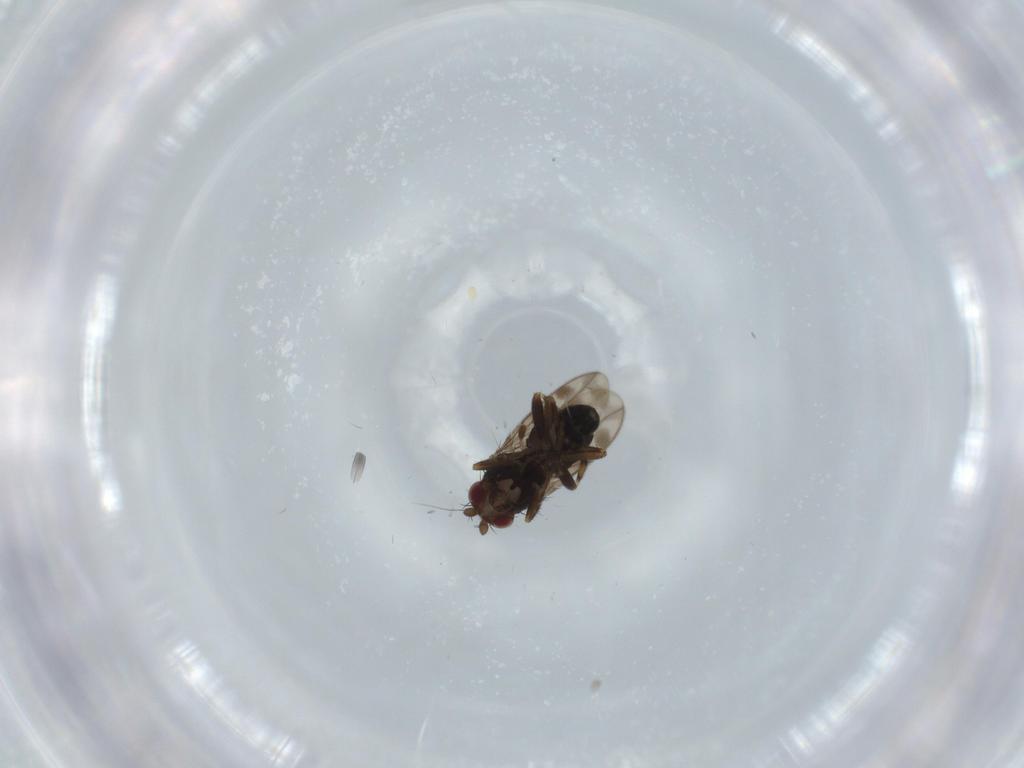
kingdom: Animalia
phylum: Arthropoda
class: Insecta
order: Diptera
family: Sphaeroceridae
